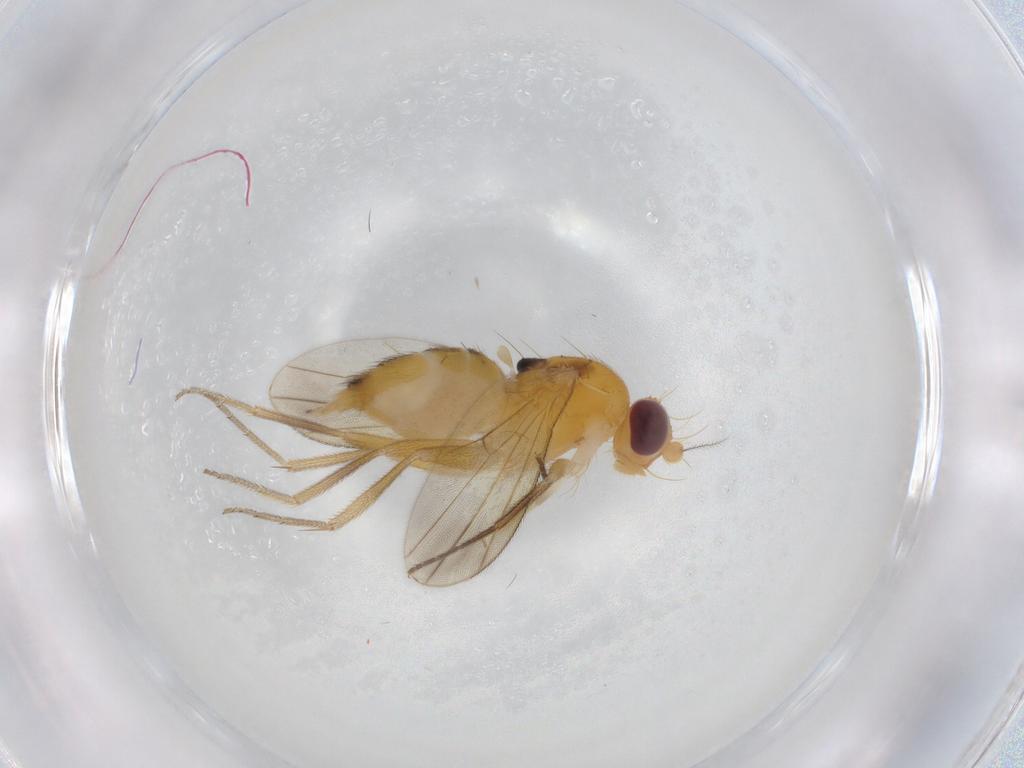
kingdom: Animalia
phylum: Arthropoda
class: Insecta
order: Diptera
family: Clusiidae
